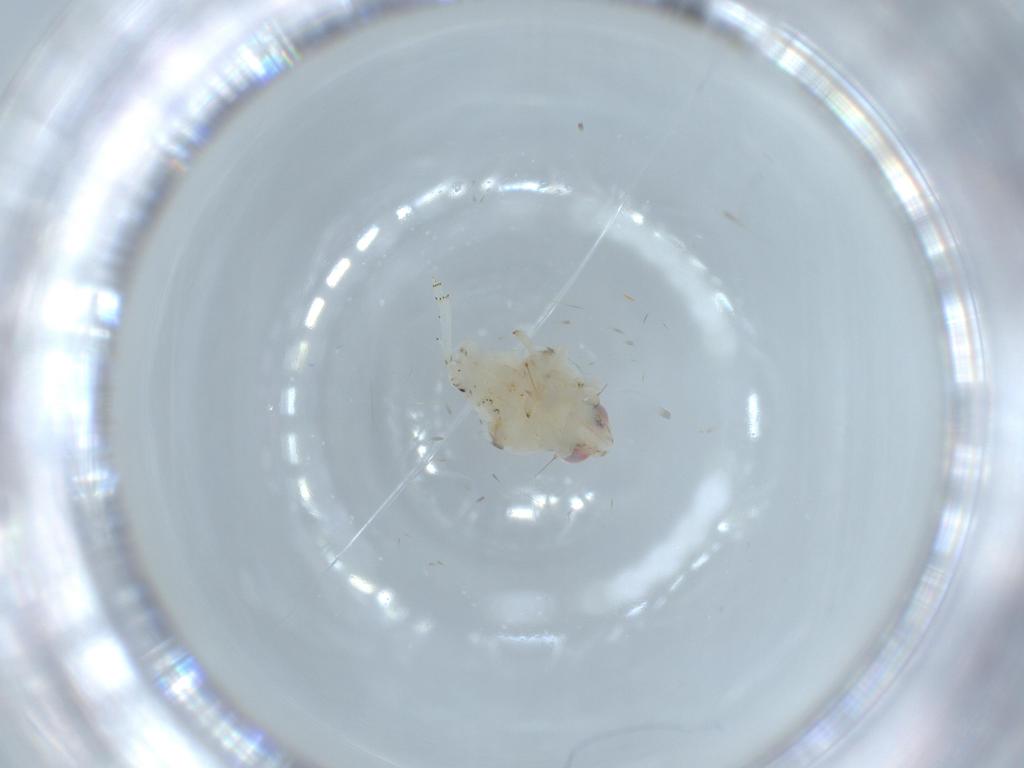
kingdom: Animalia
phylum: Arthropoda
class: Insecta
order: Hemiptera
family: Nogodinidae
